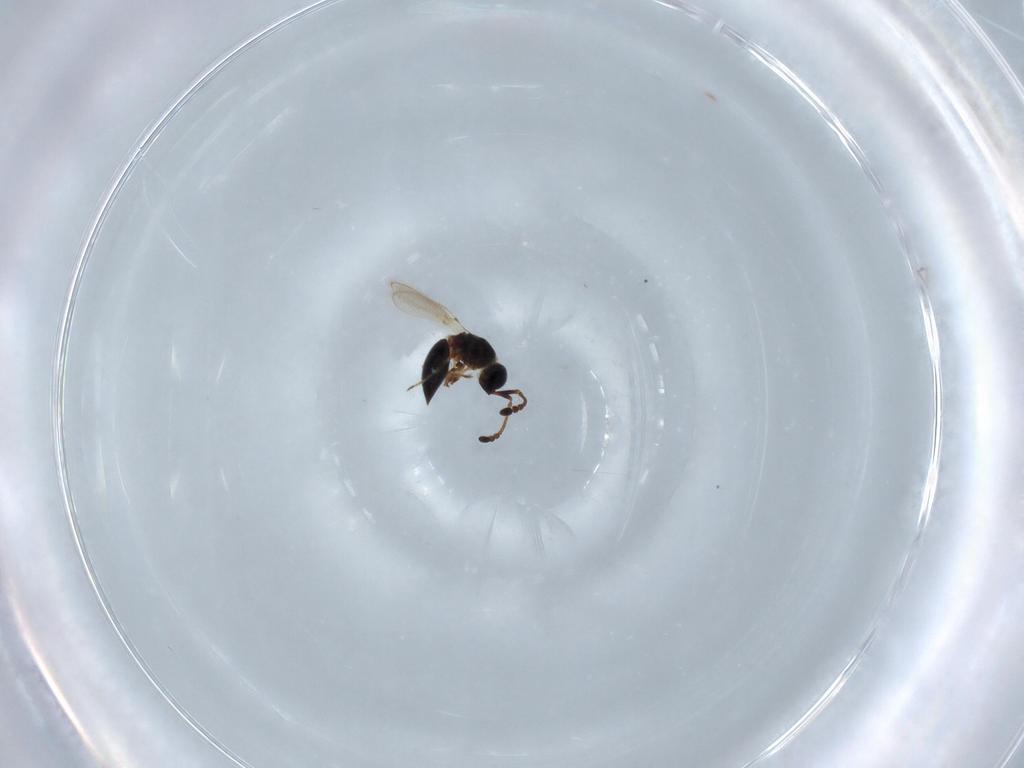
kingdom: Animalia
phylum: Arthropoda
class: Insecta
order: Hymenoptera
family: Diapriidae
